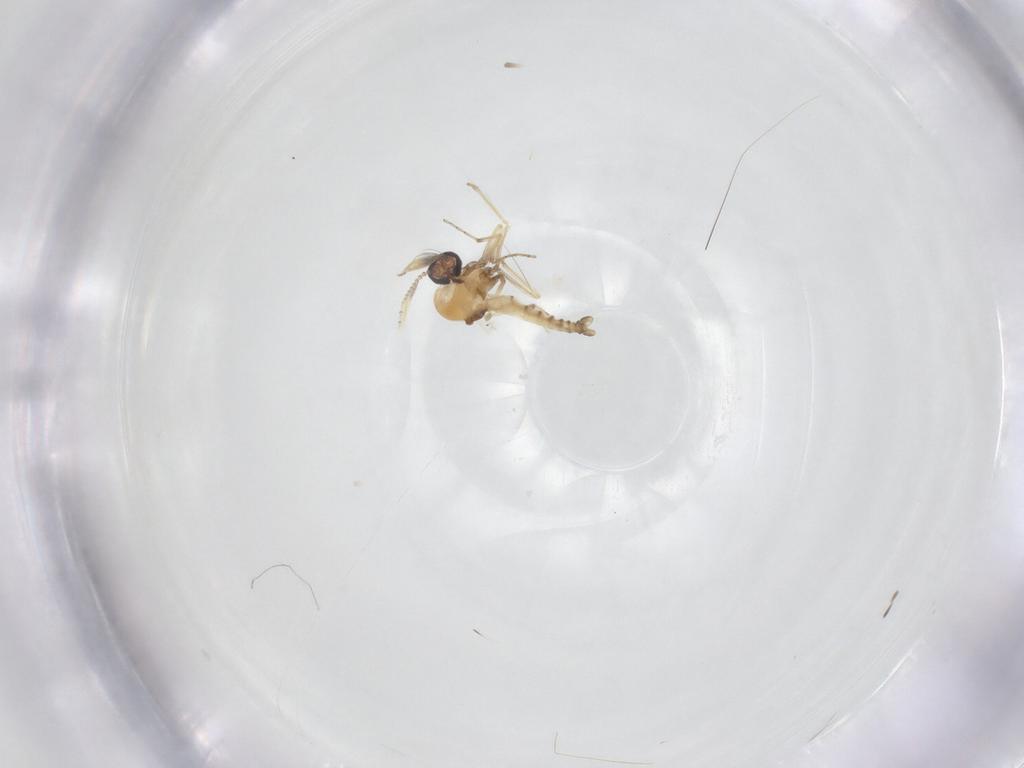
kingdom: Animalia
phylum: Arthropoda
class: Insecta
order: Diptera
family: Ceratopogonidae
